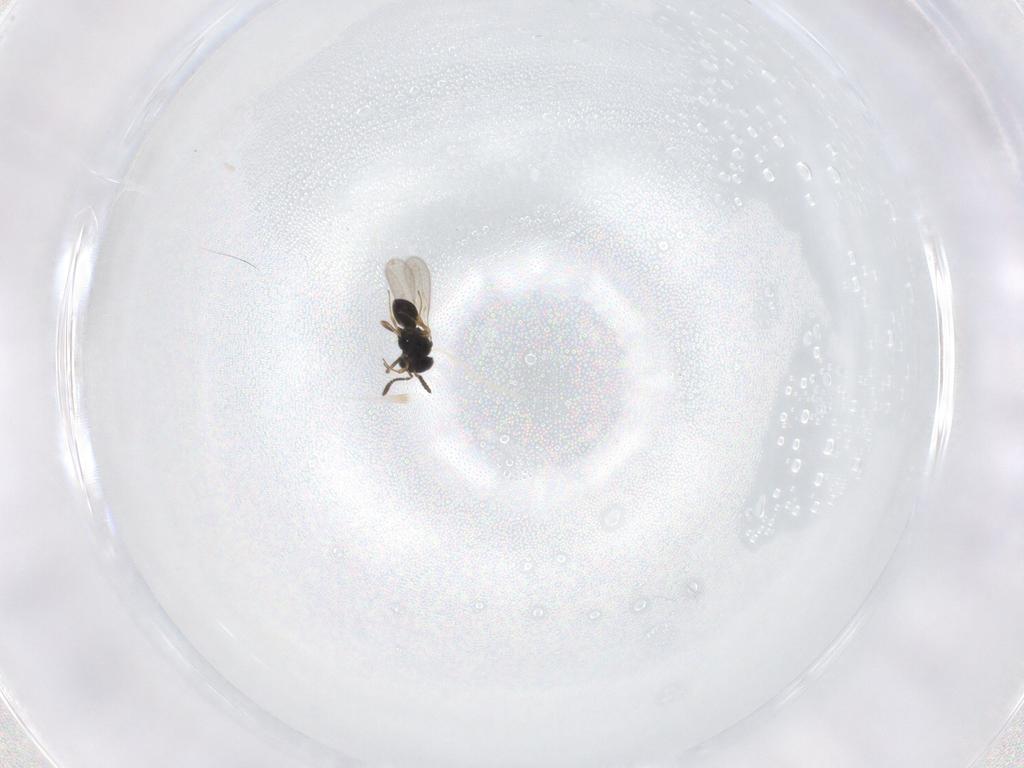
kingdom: Animalia
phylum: Arthropoda
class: Insecta
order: Hymenoptera
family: Scelionidae
